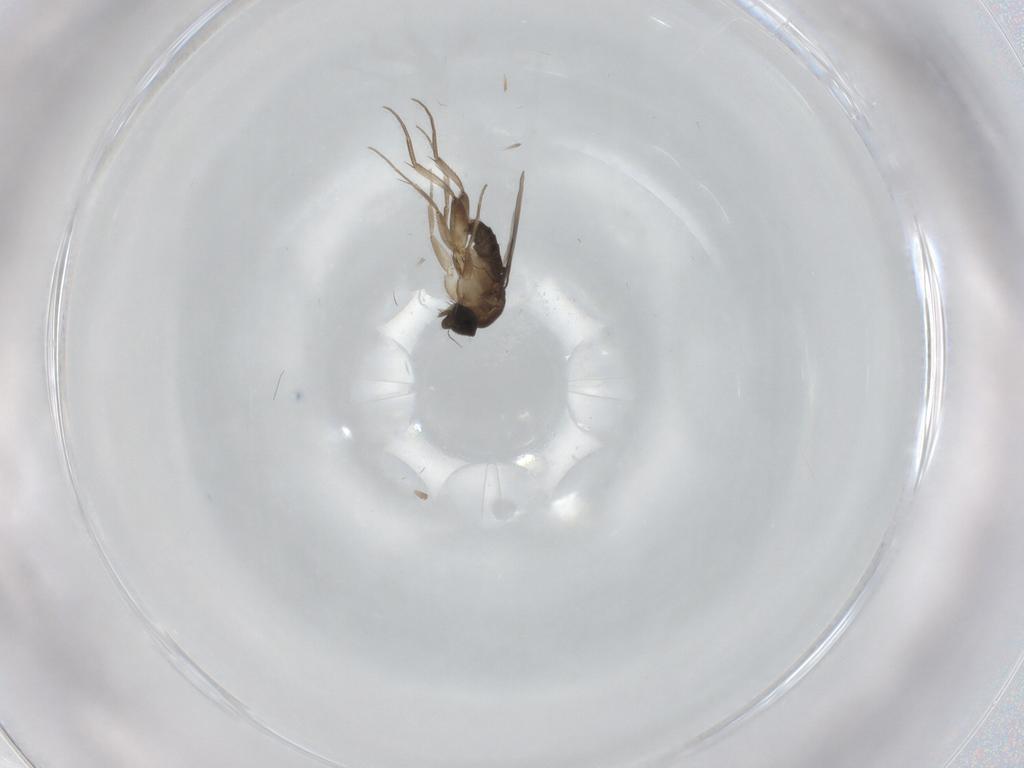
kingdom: Animalia
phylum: Arthropoda
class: Insecta
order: Diptera
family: Phoridae
